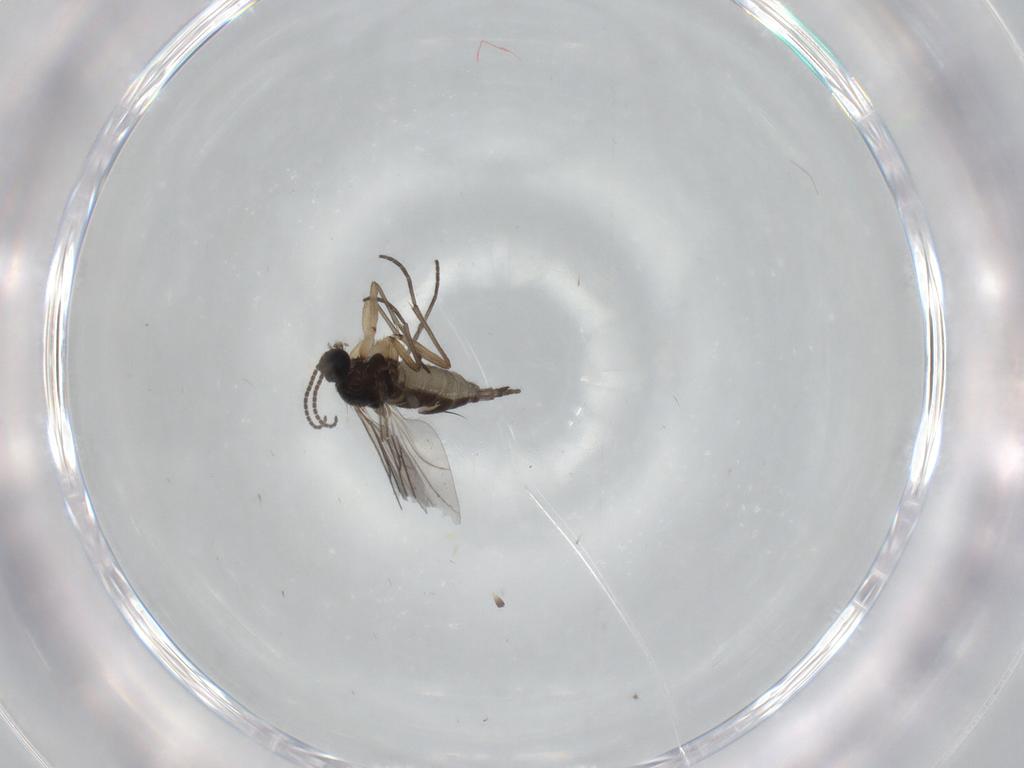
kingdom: Animalia
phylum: Arthropoda
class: Insecta
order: Diptera
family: Sciaridae
